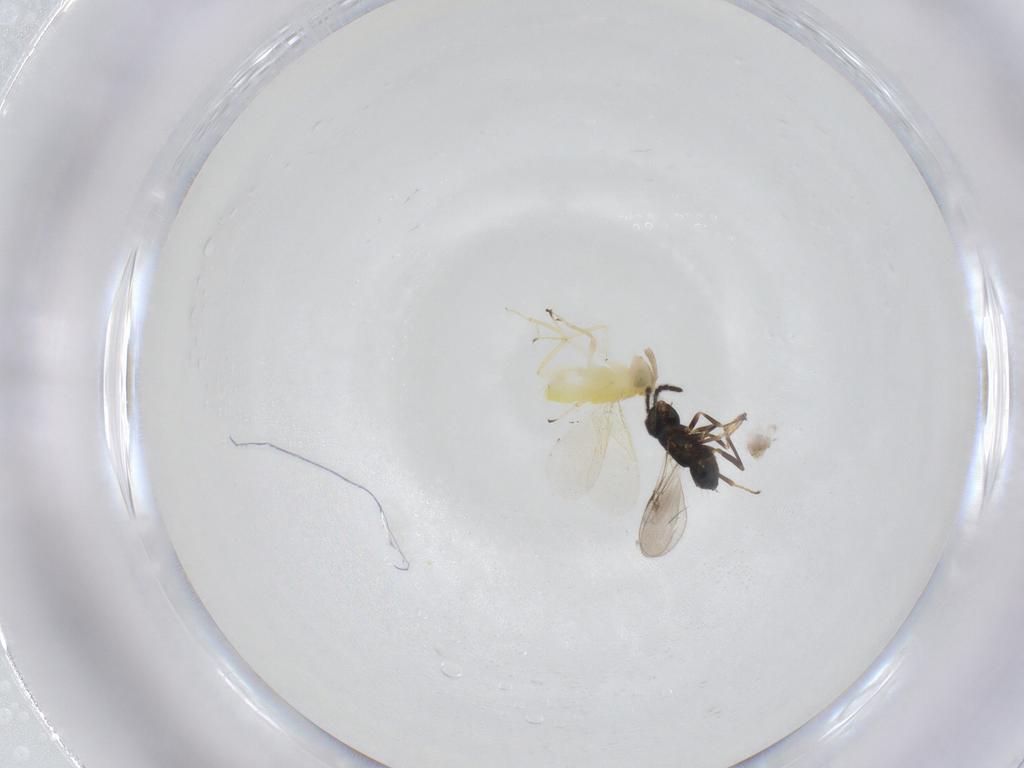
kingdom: Animalia
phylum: Arthropoda
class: Insecta
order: Hymenoptera
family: Aphelinidae
